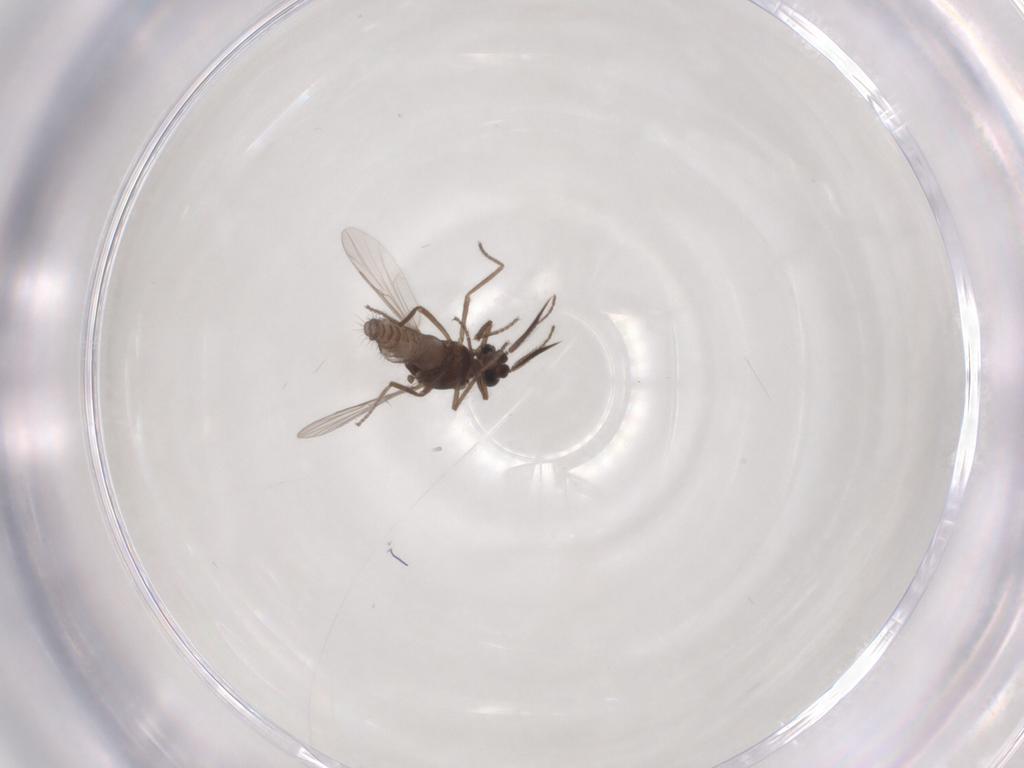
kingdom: Animalia
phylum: Arthropoda
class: Insecta
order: Diptera
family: Ceratopogonidae
